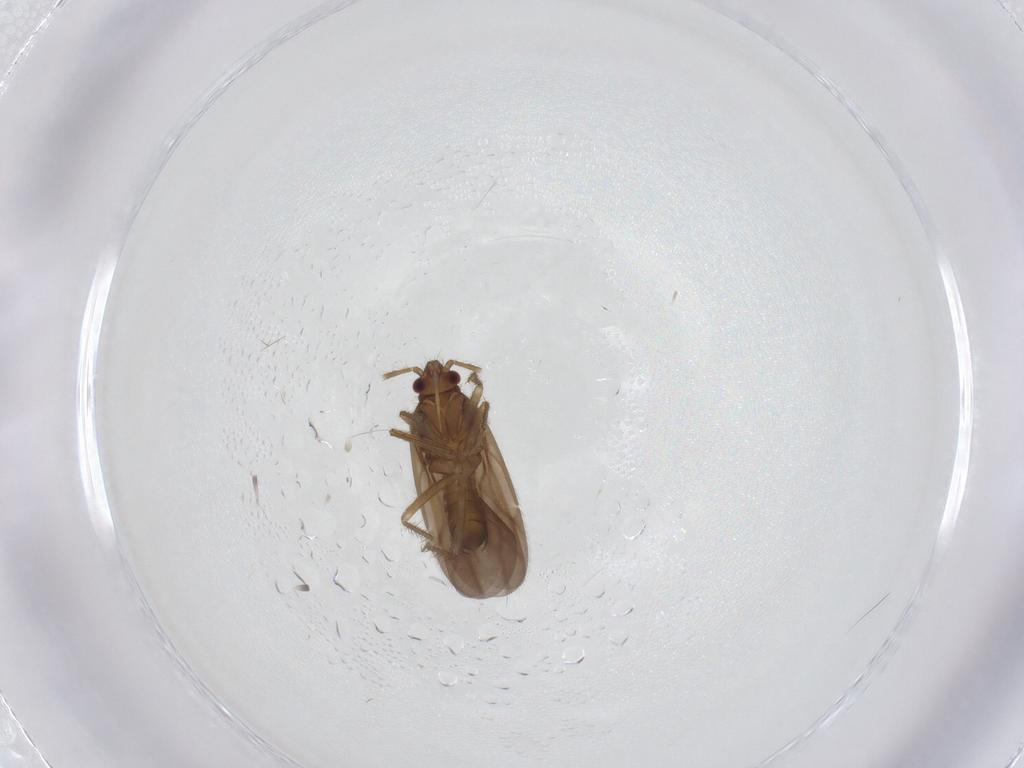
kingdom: Animalia
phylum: Arthropoda
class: Insecta
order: Hemiptera
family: Ceratocombidae
